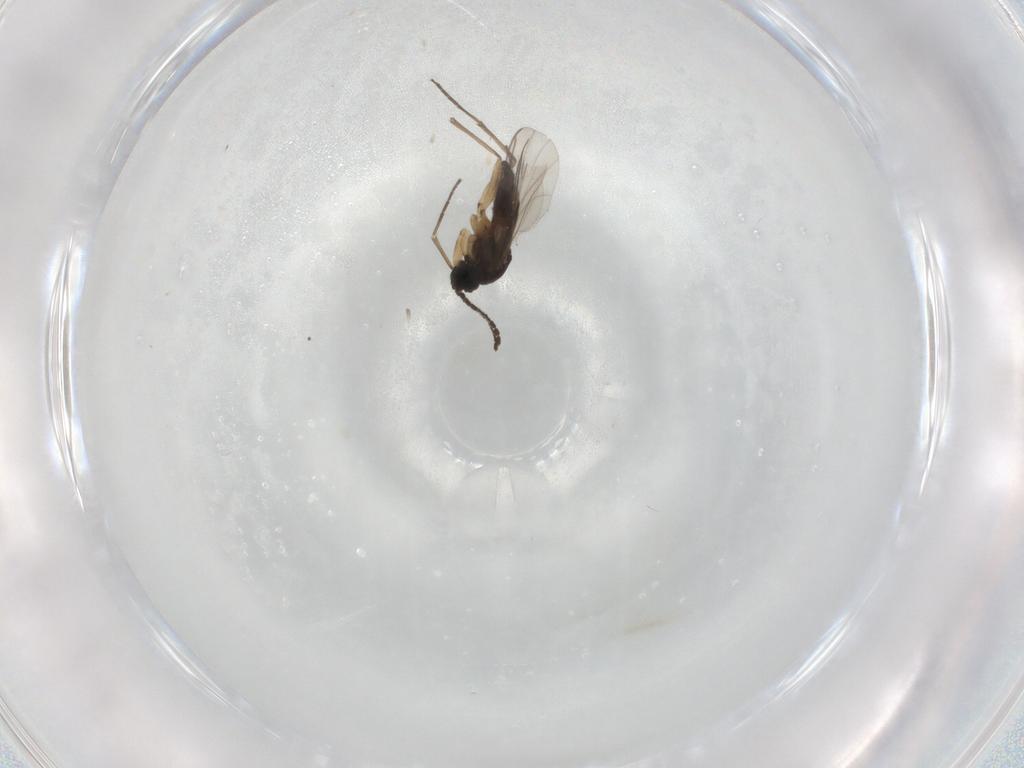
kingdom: Animalia
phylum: Arthropoda
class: Insecta
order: Diptera
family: Sciaridae
